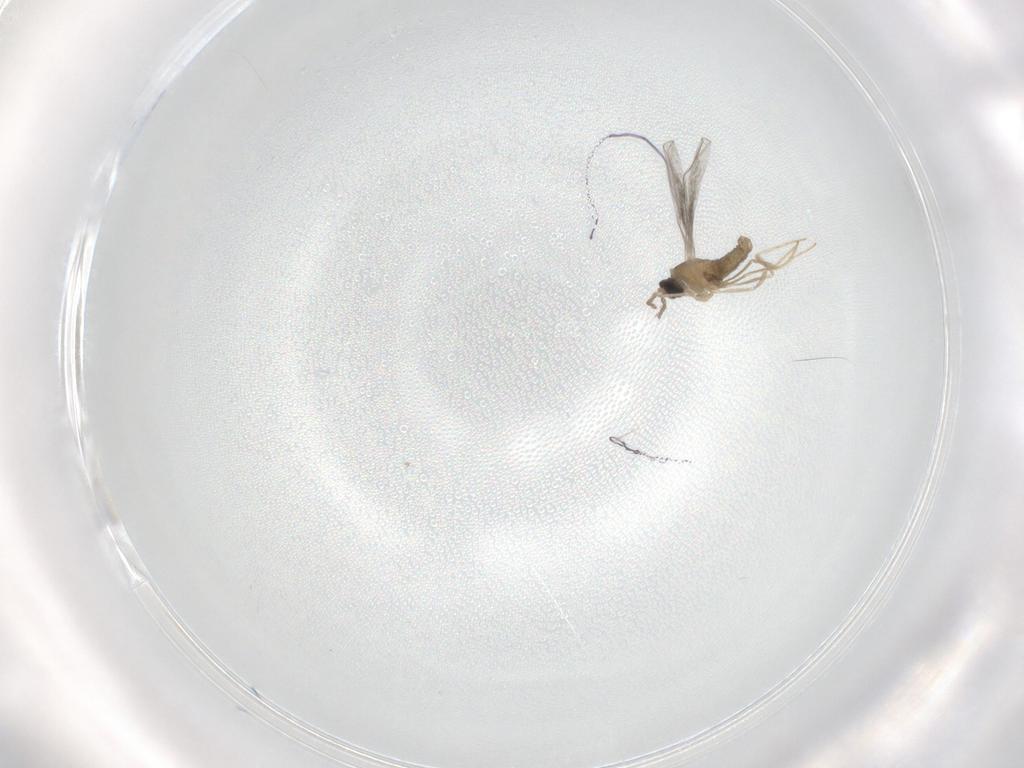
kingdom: Animalia
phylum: Arthropoda
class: Insecta
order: Diptera
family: Cecidomyiidae
